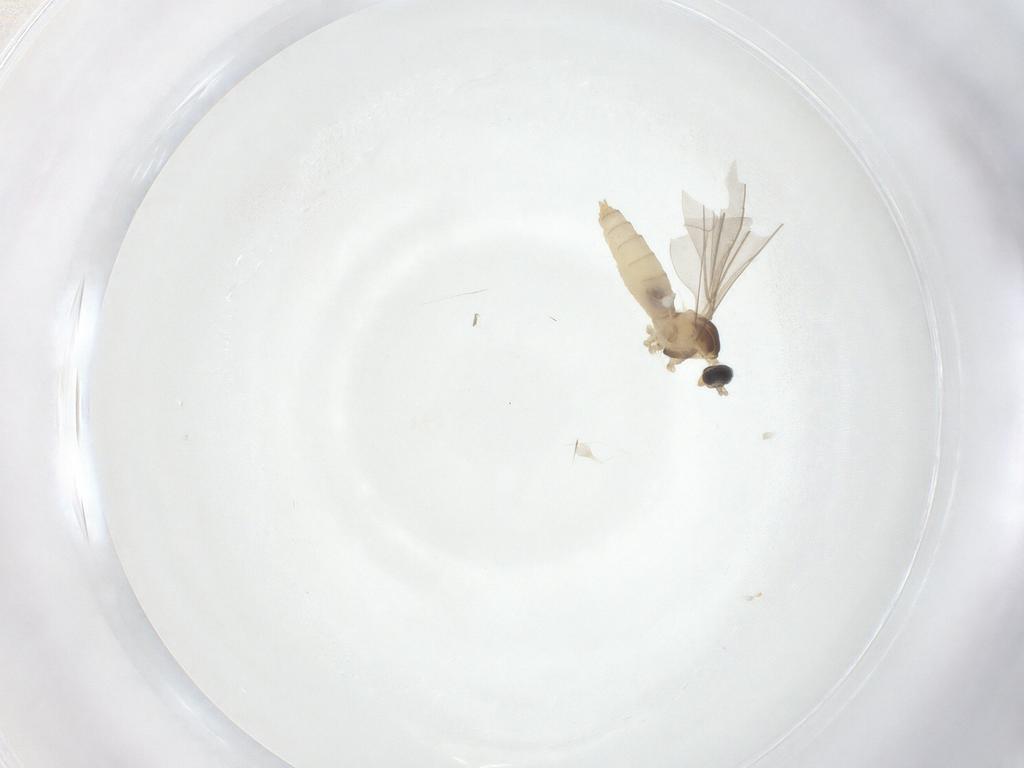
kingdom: Animalia
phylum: Arthropoda
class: Insecta
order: Diptera
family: Cecidomyiidae
